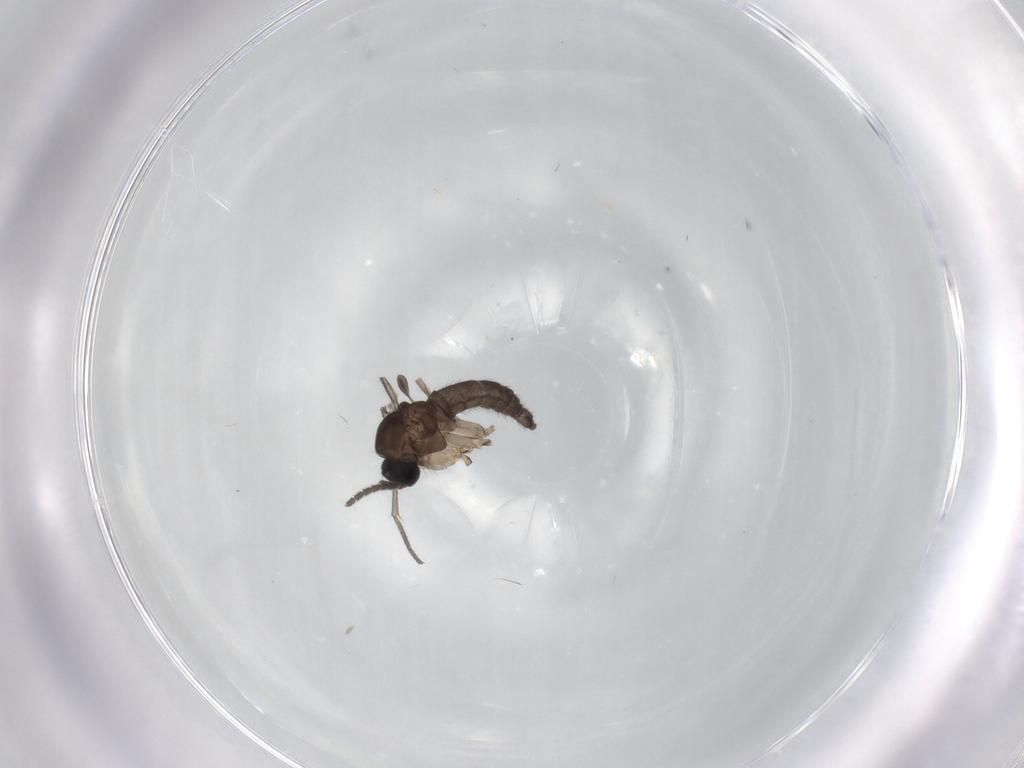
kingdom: Animalia
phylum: Arthropoda
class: Insecta
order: Diptera
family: Sciaridae
